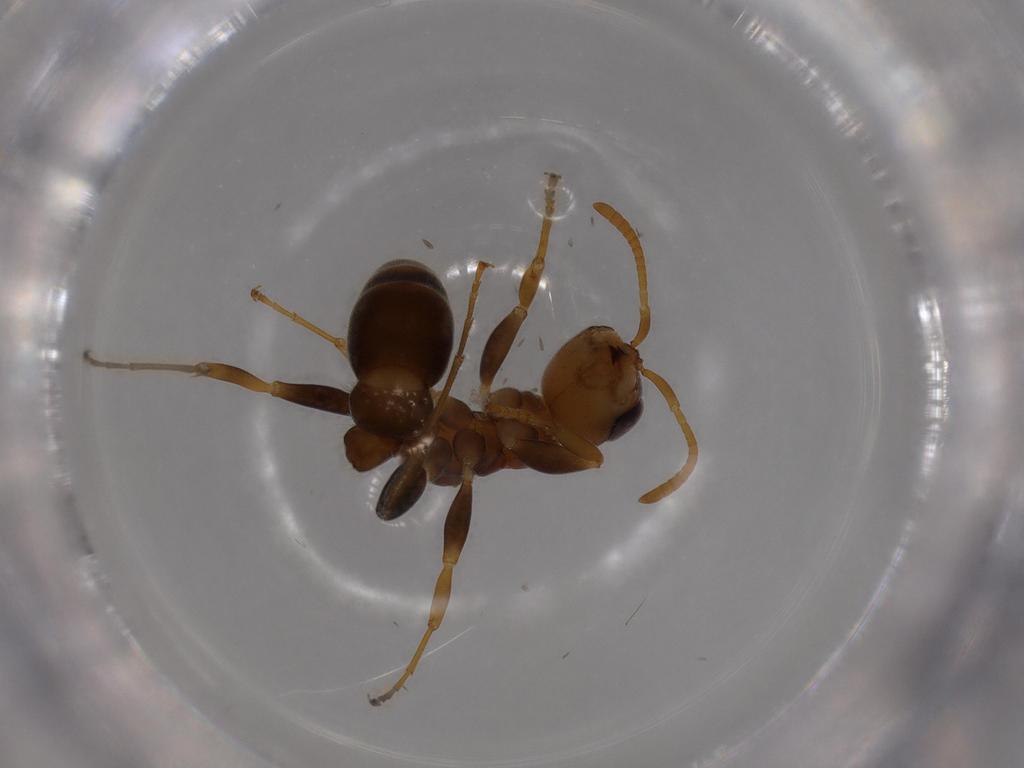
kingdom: Animalia
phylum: Arthropoda
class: Insecta
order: Hymenoptera
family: Formicidae
